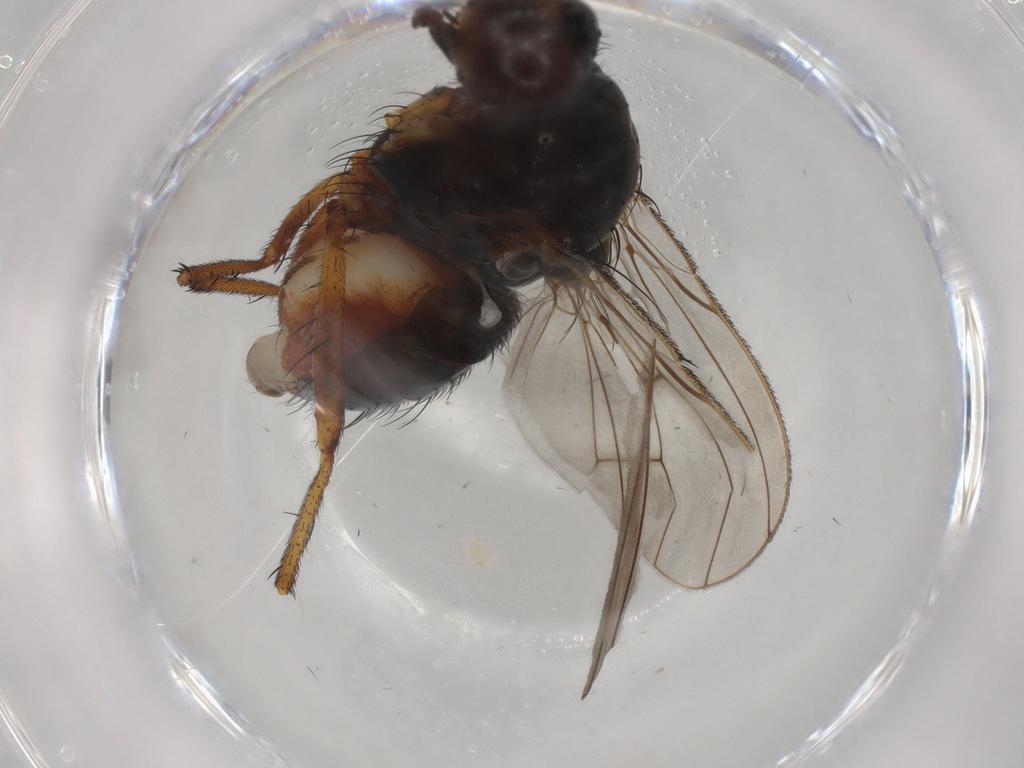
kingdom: Animalia
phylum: Arthropoda
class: Insecta
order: Diptera
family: Anthomyiidae
